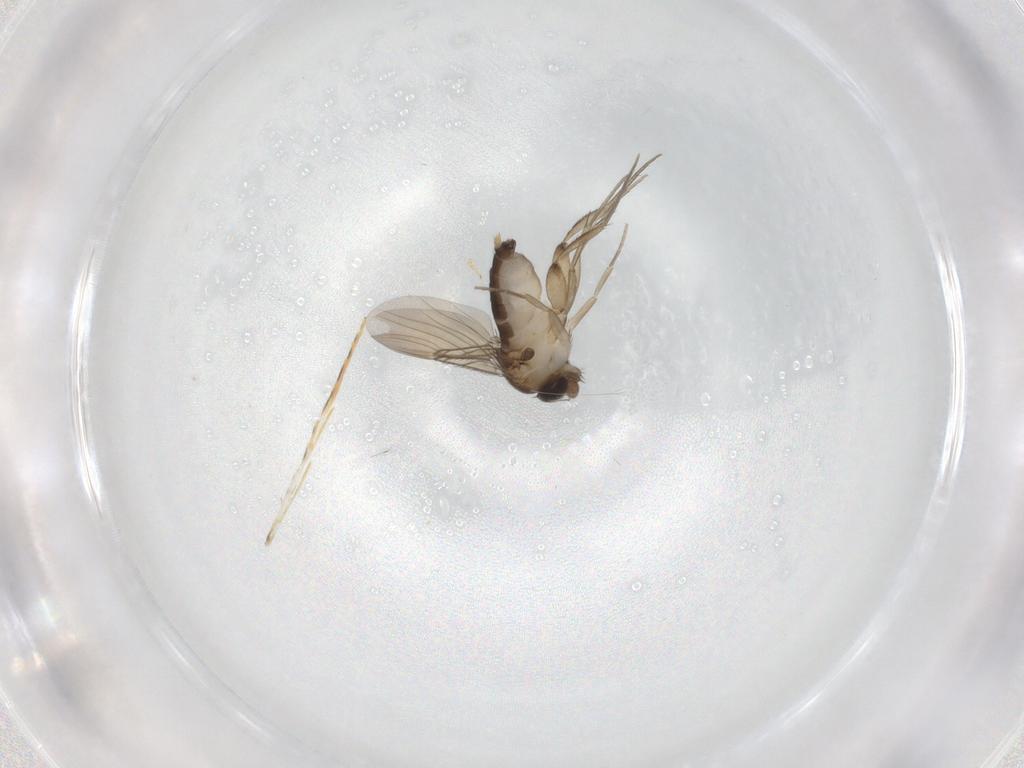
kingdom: Animalia
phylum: Arthropoda
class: Insecta
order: Diptera
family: Phoridae
